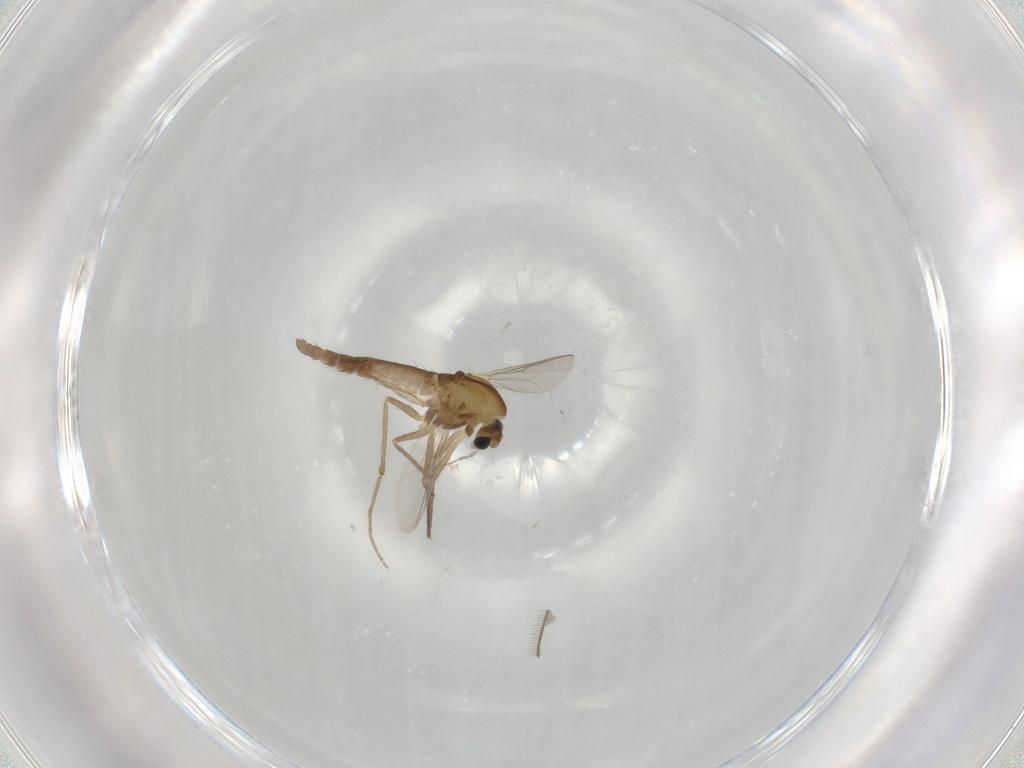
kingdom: Animalia
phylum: Arthropoda
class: Insecta
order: Diptera
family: Chironomidae
